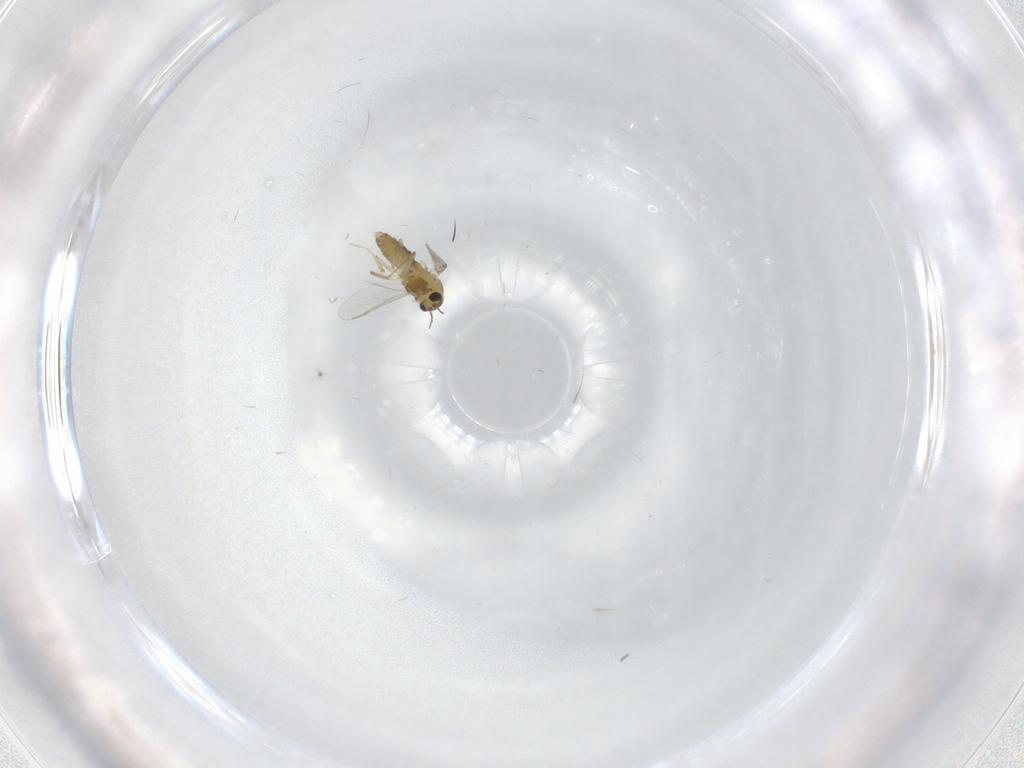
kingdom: Animalia
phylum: Arthropoda
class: Insecta
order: Diptera
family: Chironomidae
